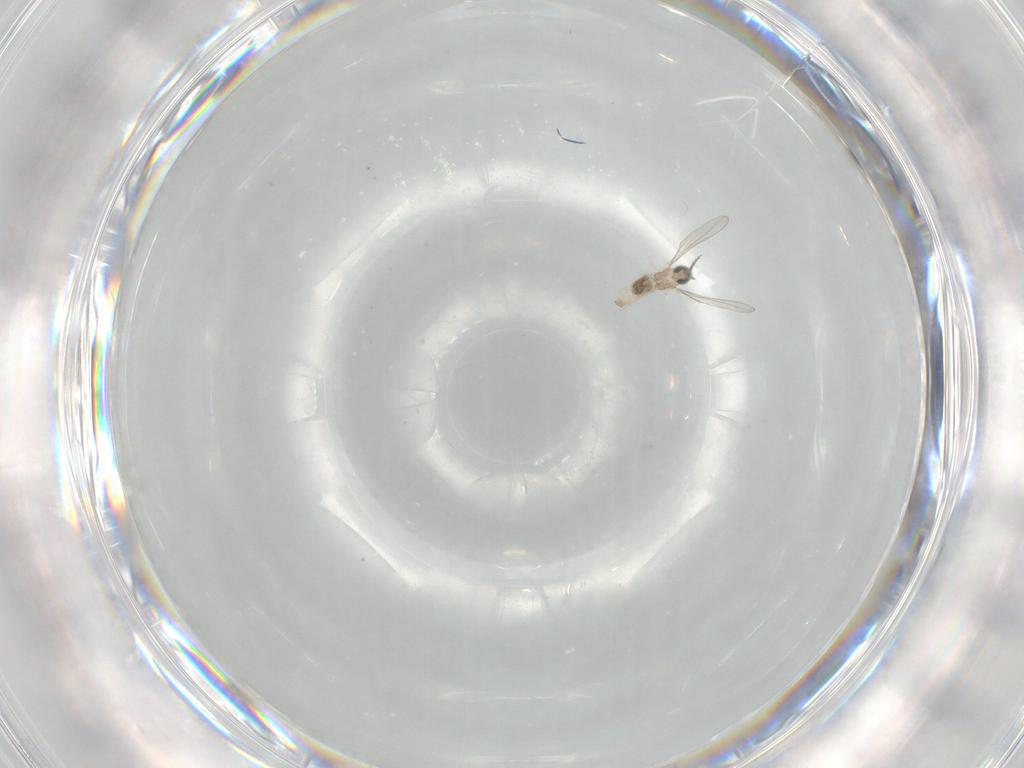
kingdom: Animalia
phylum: Arthropoda
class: Insecta
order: Diptera
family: Cecidomyiidae
